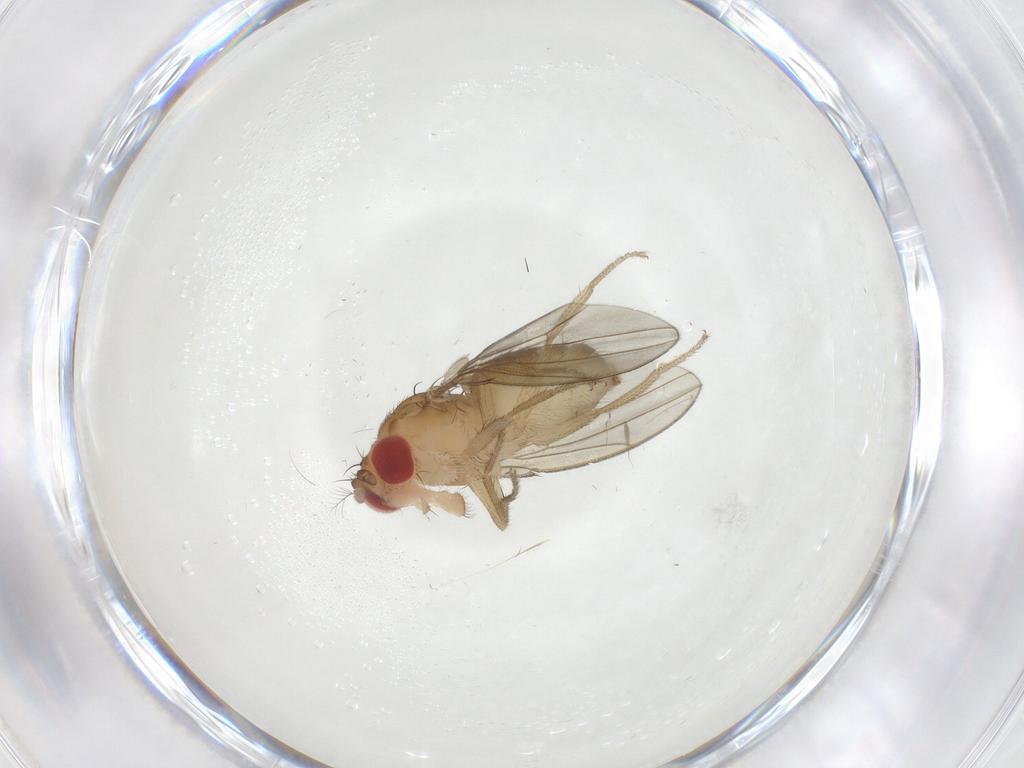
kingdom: Animalia
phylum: Arthropoda
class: Insecta
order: Diptera
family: Drosophilidae
